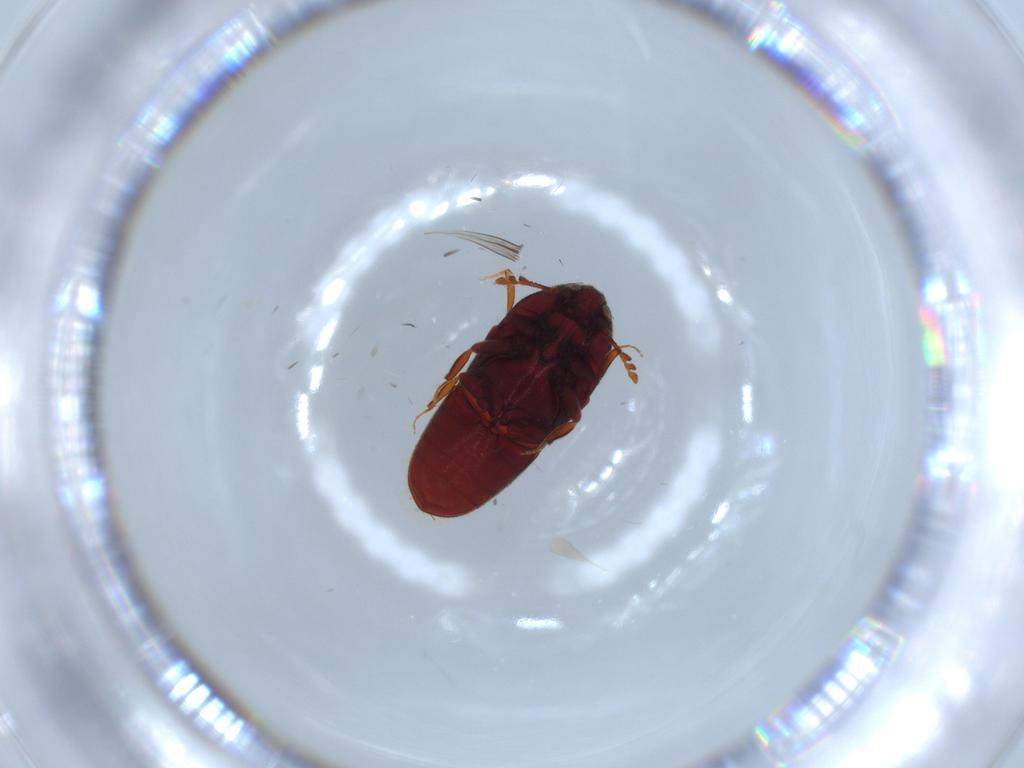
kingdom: Animalia
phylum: Arthropoda
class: Insecta
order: Coleoptera
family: Throscidae
